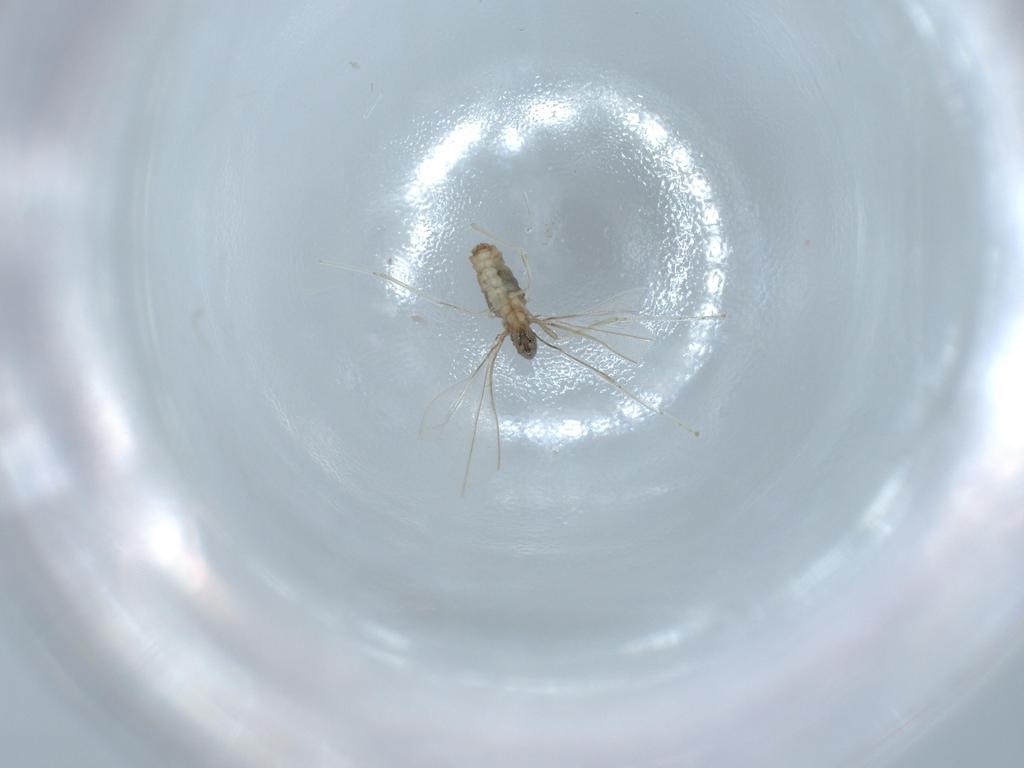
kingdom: Animalia
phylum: Arthropoda
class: Insecta
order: Diptera
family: Cecidomyiidae
